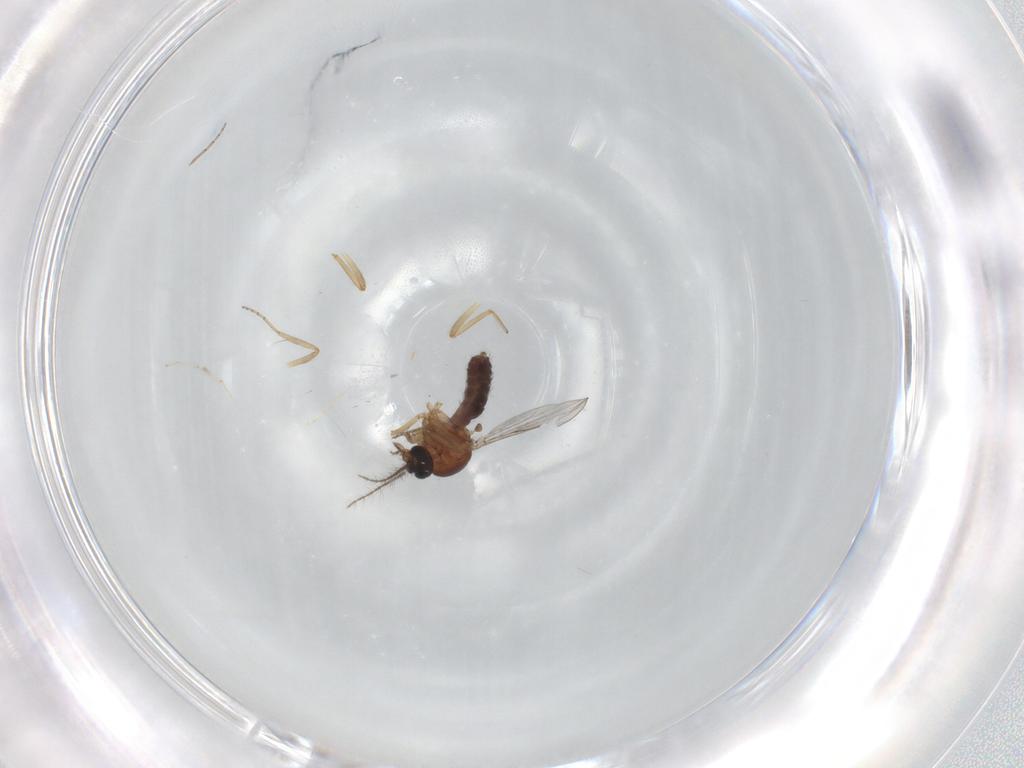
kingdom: Animalia
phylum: Arthropoda
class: Insecta
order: Diptera
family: Ceratopogonidae
